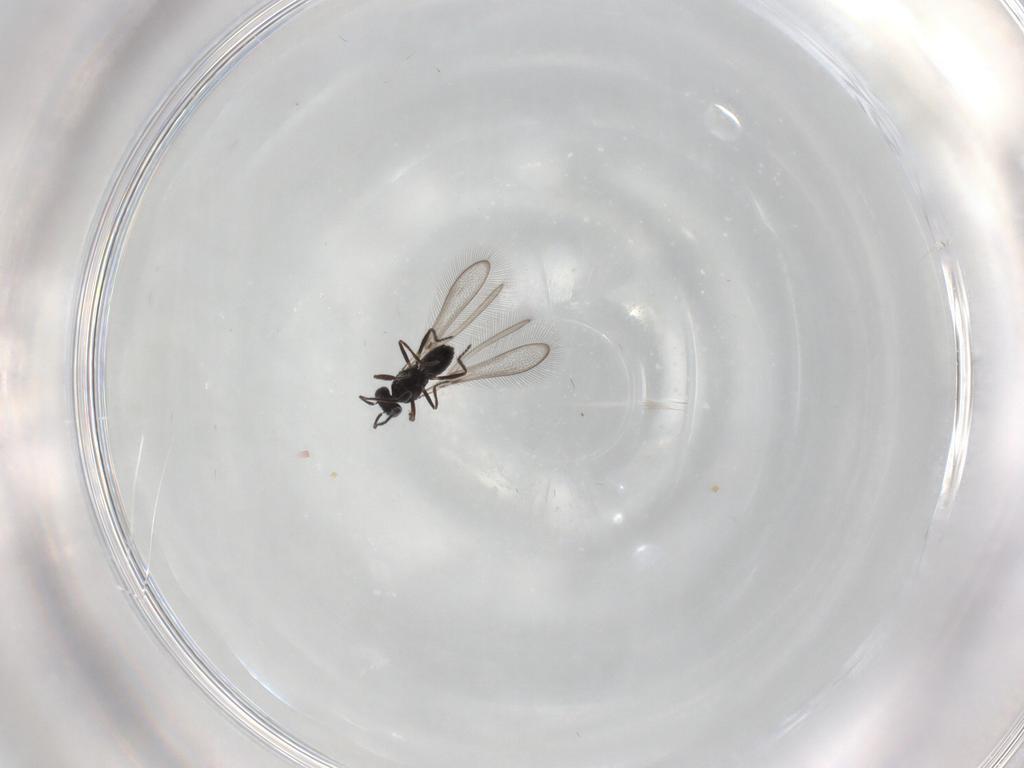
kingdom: Animalia
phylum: Arthropoda
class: Insecta
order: Hymenoptera
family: Mymaridae
